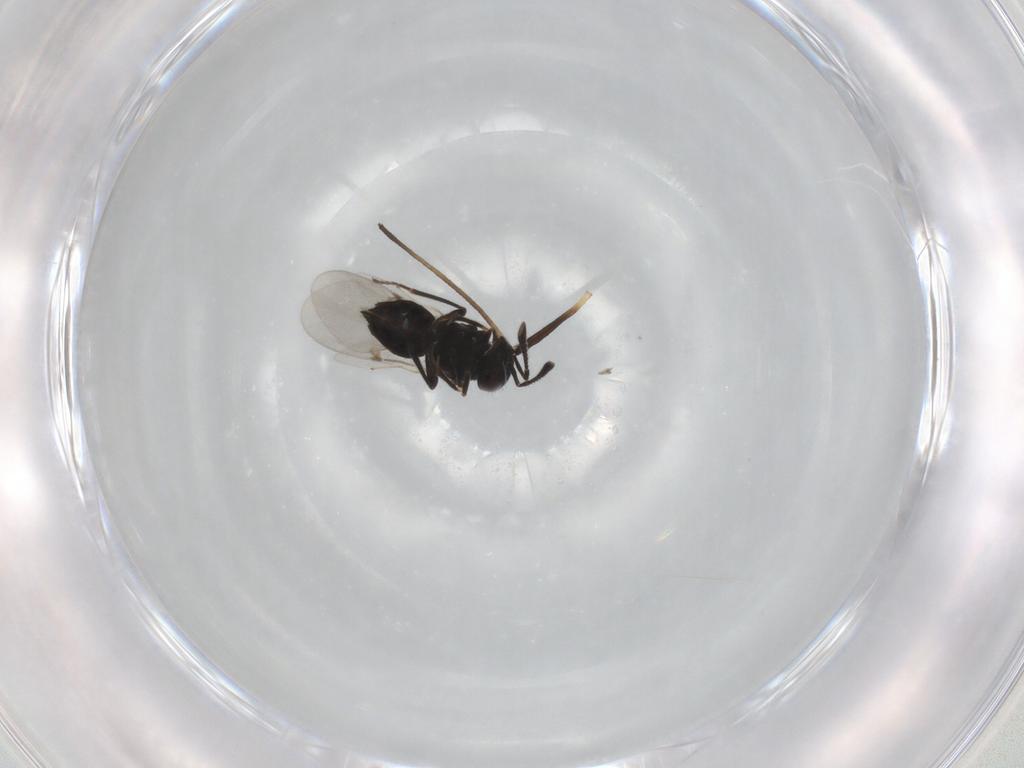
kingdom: Animalia
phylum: Arthropoda
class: Insecta
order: Hymenoptera
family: Encyrtidae
